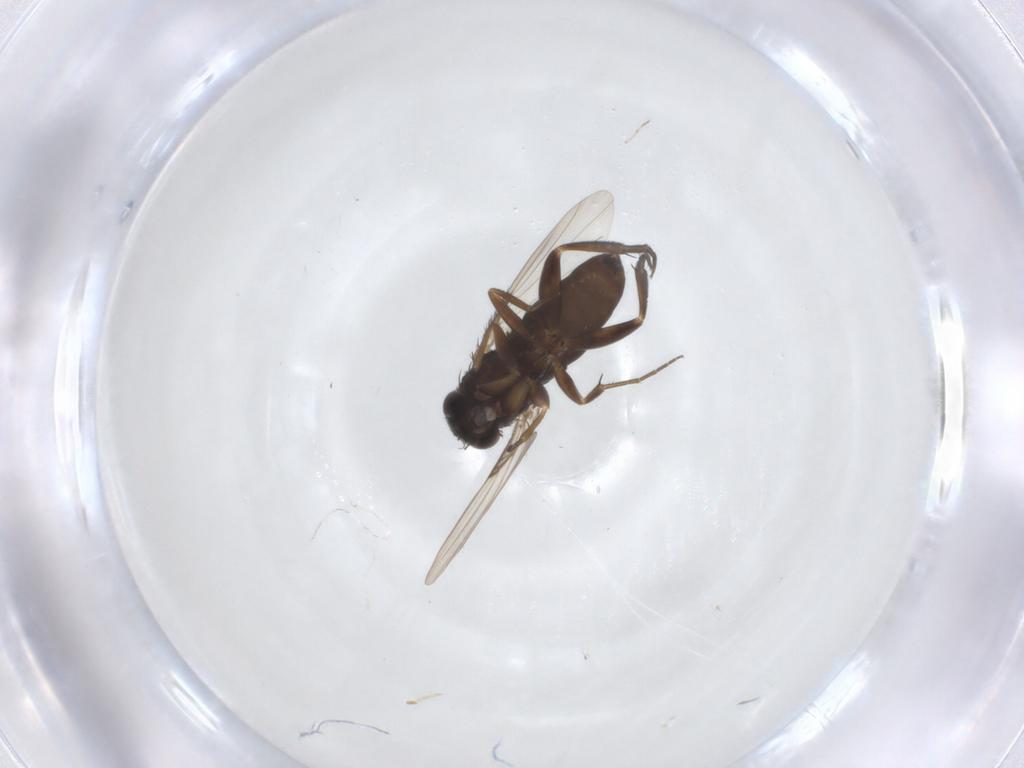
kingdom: Animalia
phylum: Arthropoda
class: Insecta
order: Diptera
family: Phoridae
